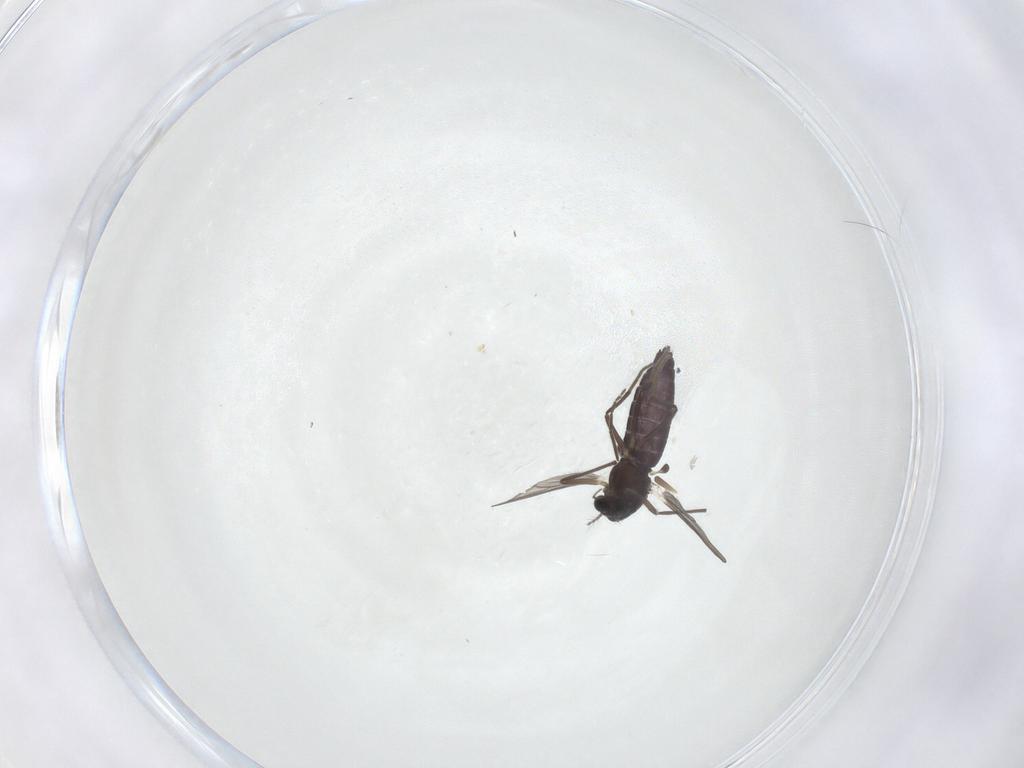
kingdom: Animalia
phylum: Arthropoda
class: Insecta
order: Diptera
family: Chironomidae
